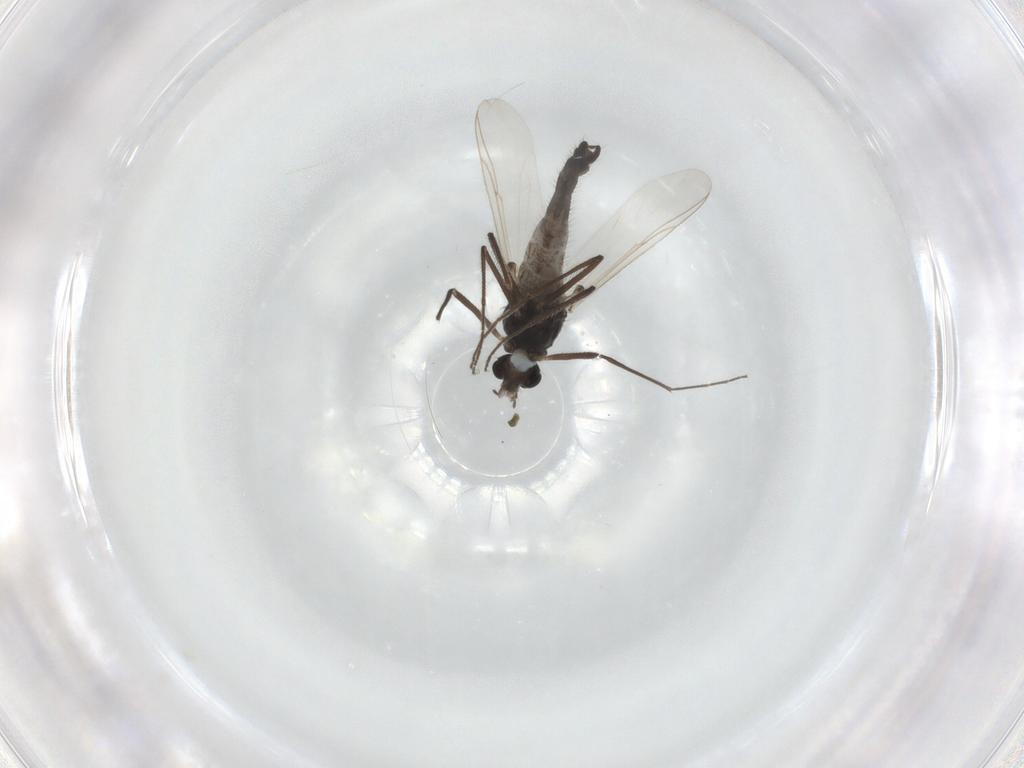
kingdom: Animalia
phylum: Arthropoda
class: Insecta
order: Diptera
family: Chironomidae
